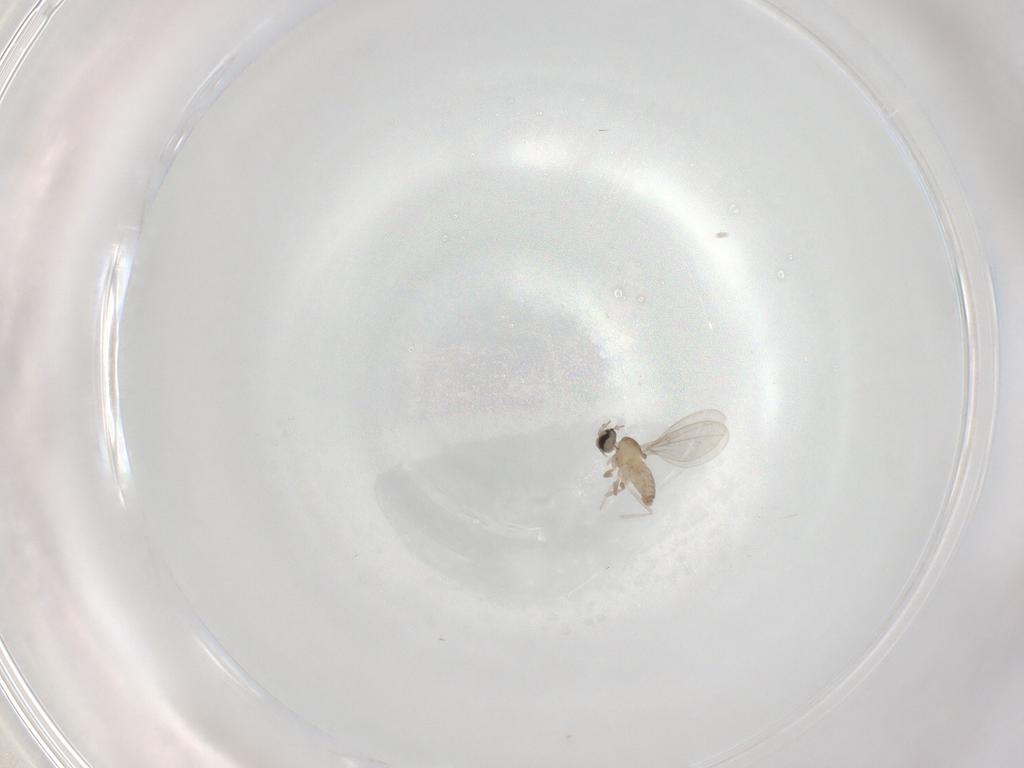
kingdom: Animalia
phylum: Arthropoda
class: Insecta
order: Diptera
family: Cecidomyiidae
